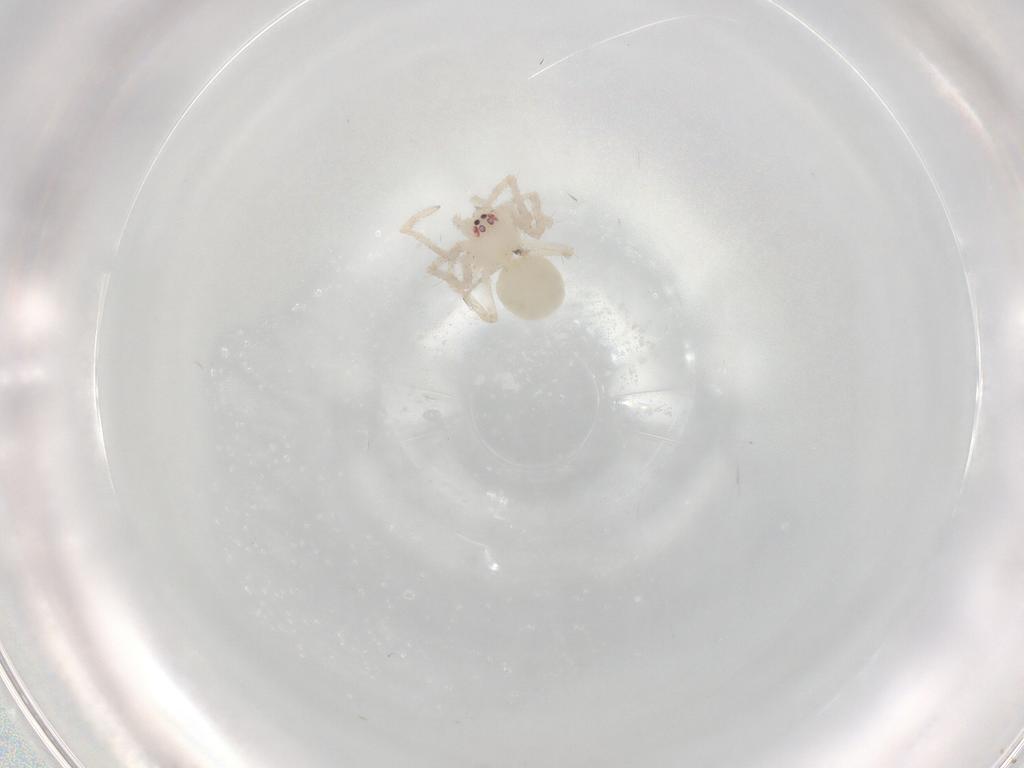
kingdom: Animalia
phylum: Arthropoda
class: Arachnida
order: Araneae
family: Nesticidae
